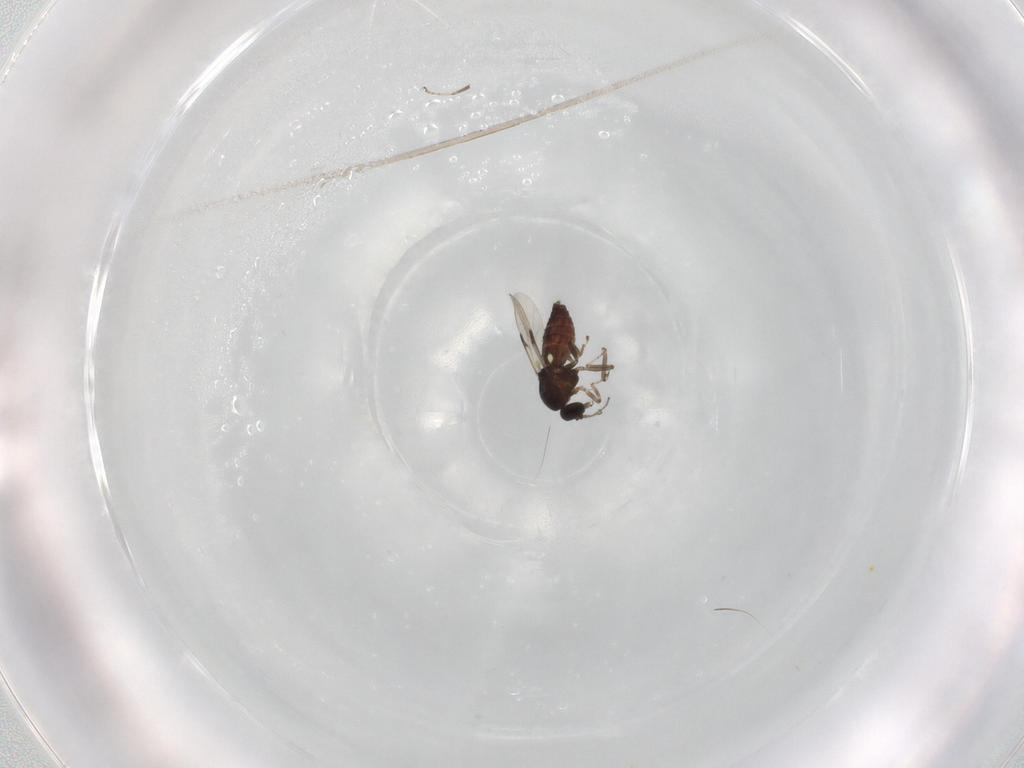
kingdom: Animalia
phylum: Arthropoda
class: Insecta
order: Diptera
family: Ceratopogonidae
